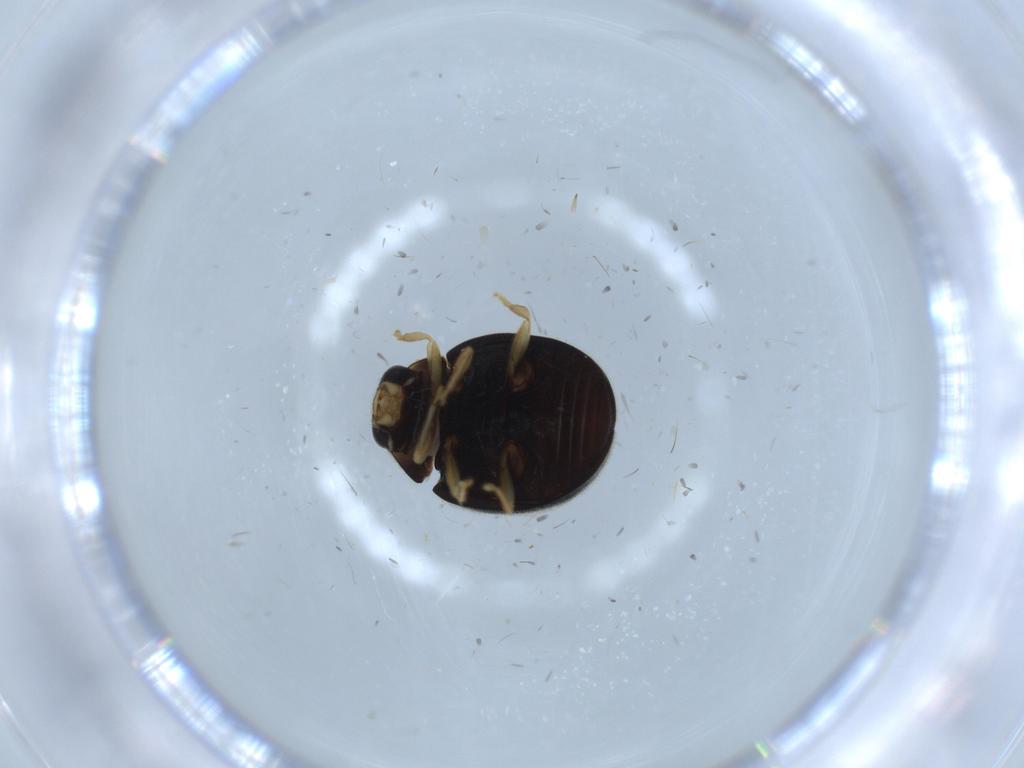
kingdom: Animalia
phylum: Arthropoda
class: Insecta
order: Coleoptera
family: Coccinellidae
